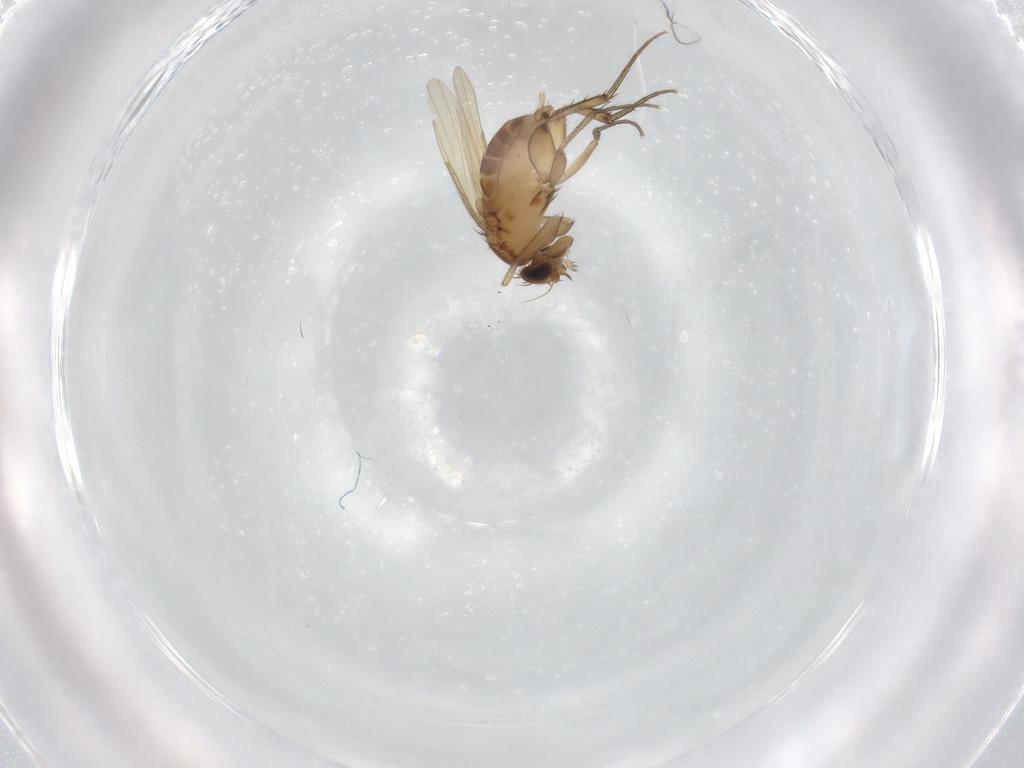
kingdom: Animalia
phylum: Arthropoda
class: Insecta
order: Diptera
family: Phoridae
